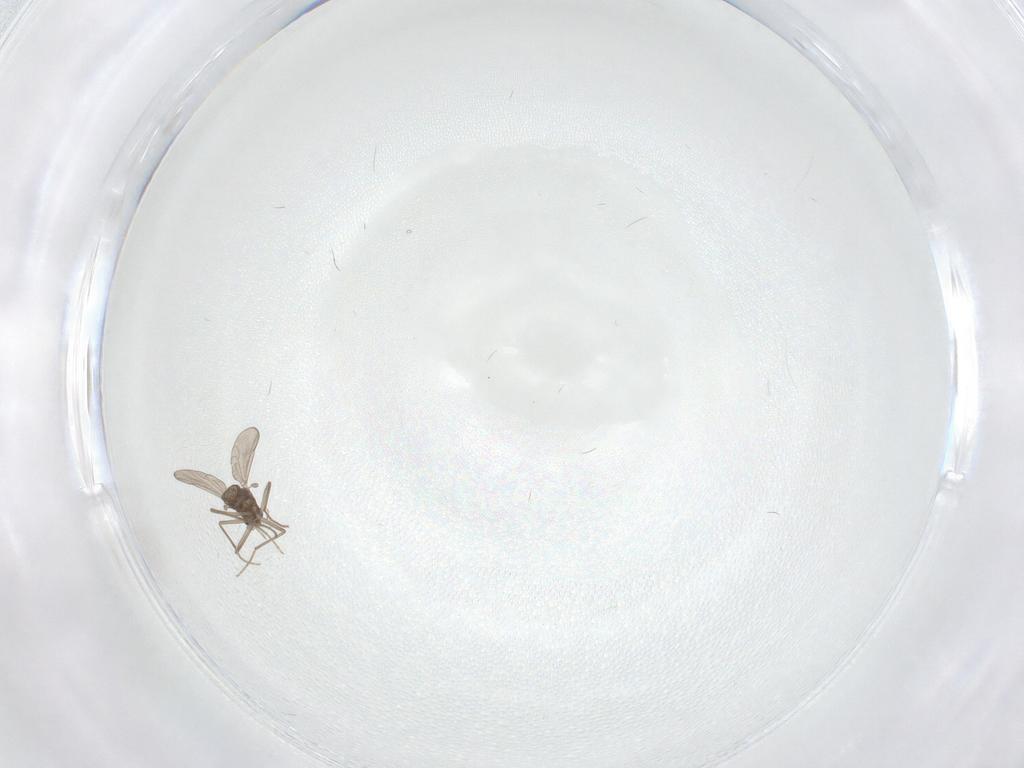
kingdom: Animalia
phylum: Arthropoda
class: Insecta
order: Diptera
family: Chironomidae
